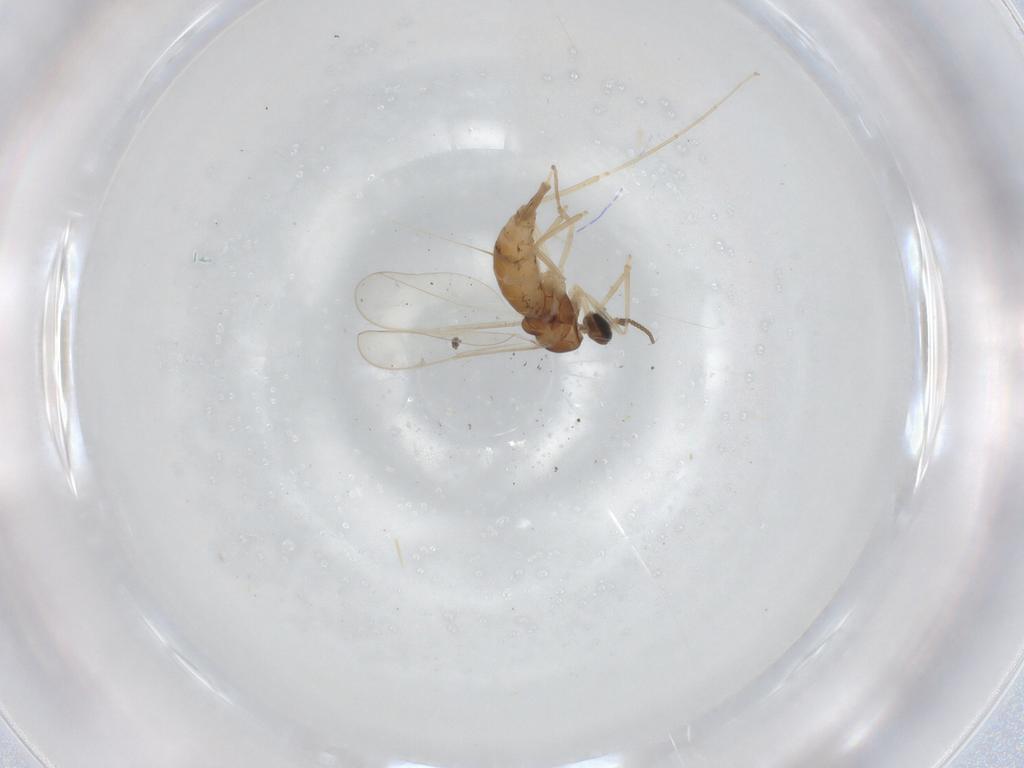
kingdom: Animalia
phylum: Arthropoda
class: Insecta
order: Diptera
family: Cecidomyiidae
